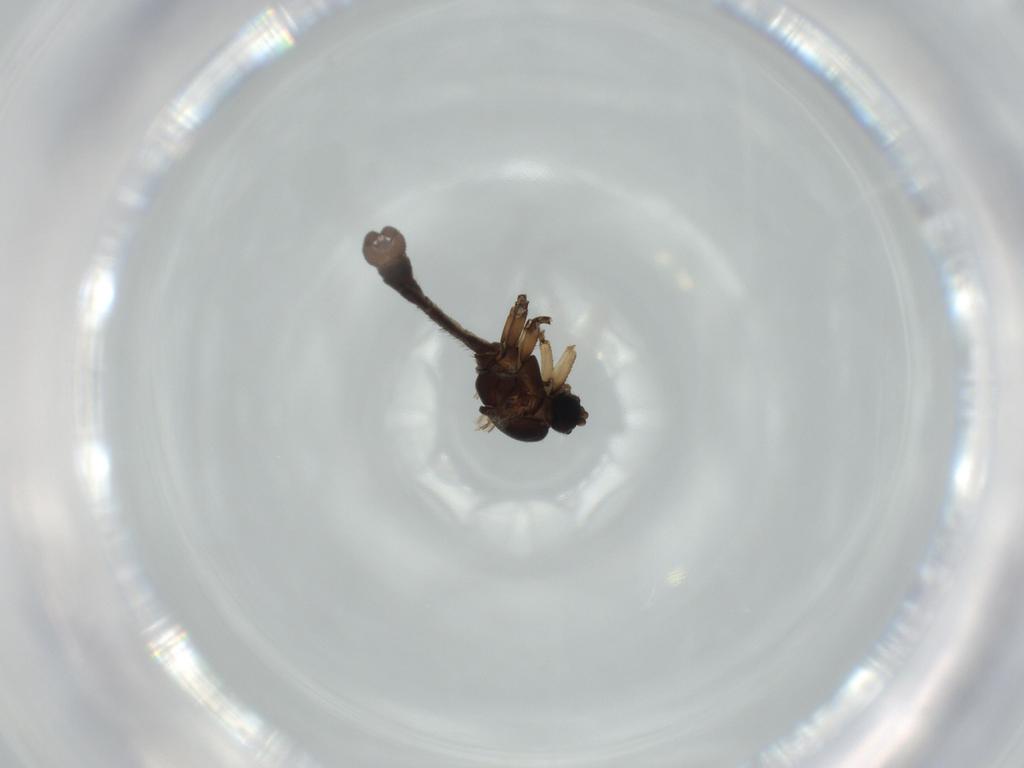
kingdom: Animalia
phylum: Arthropoda
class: Insecta
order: Diptera
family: Sciaridae
